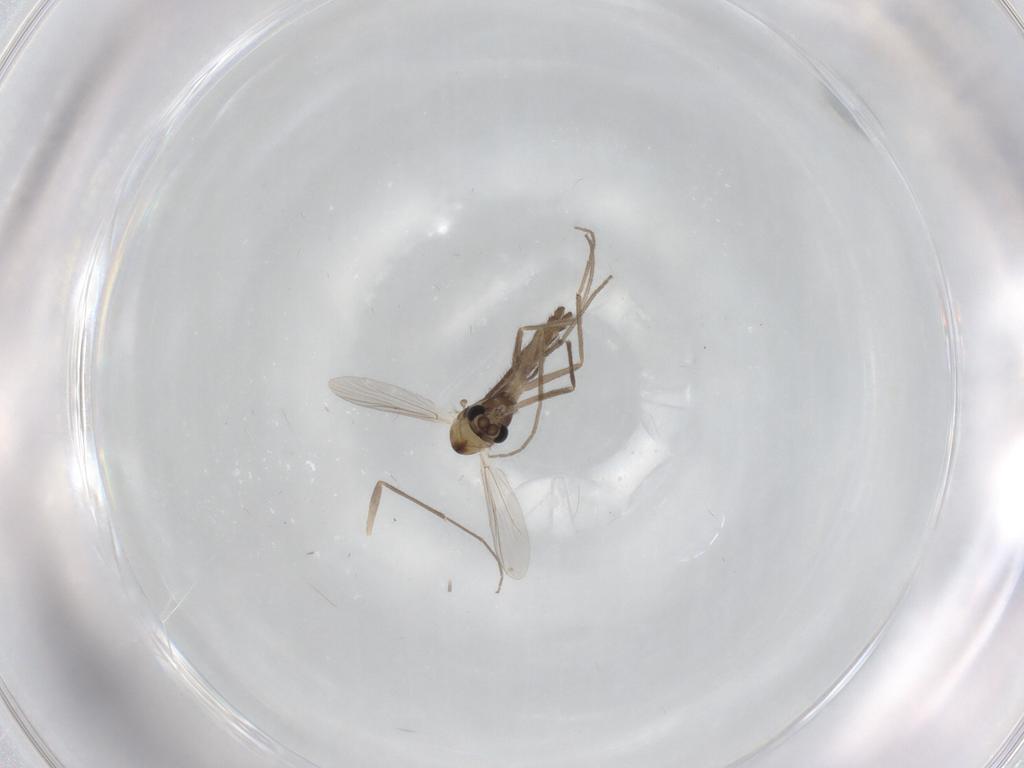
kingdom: Animalia
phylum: Arthropoda
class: Insecta
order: Diptera
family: Chironomidae
